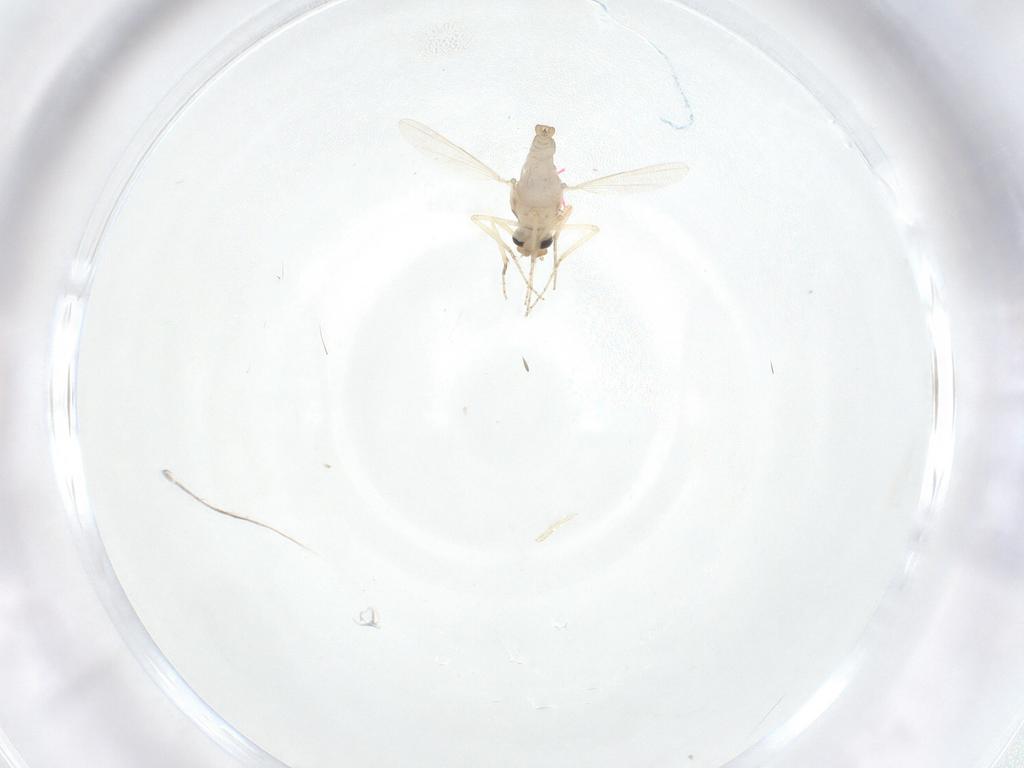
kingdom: Animalia
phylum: Arthropoda
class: Insecta
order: Diptera
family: Ceratopogonidae
